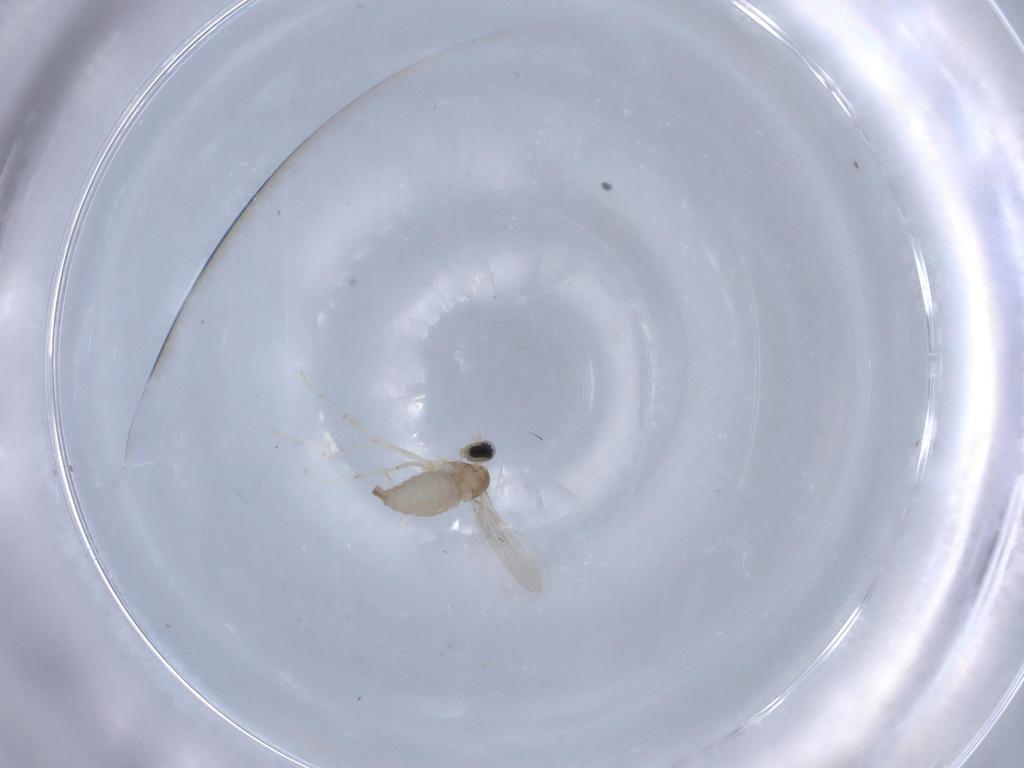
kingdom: Animalia
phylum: Arthropoda
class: Insecta
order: Diptera
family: Cecidomyiidae
